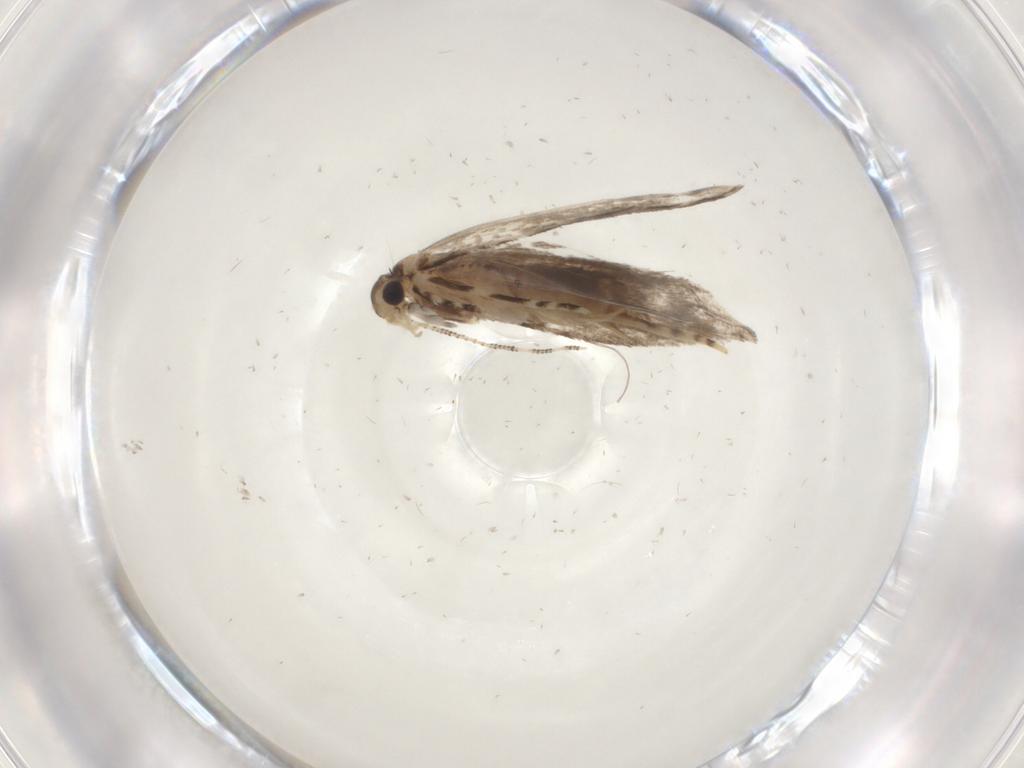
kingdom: Animalia
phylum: Arthropoda
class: Insecta
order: Lepidoptera
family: Tineidae
